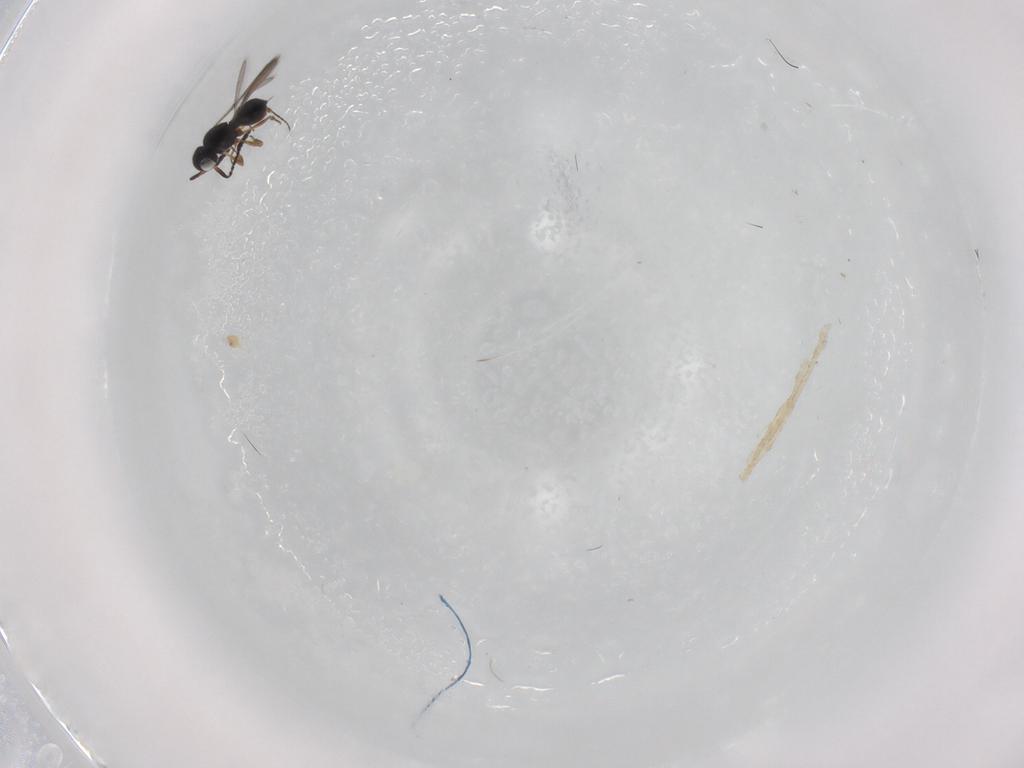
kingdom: Animalia
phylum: Arthropoda
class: Insecta
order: Hymenoptera
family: Scelionidae
